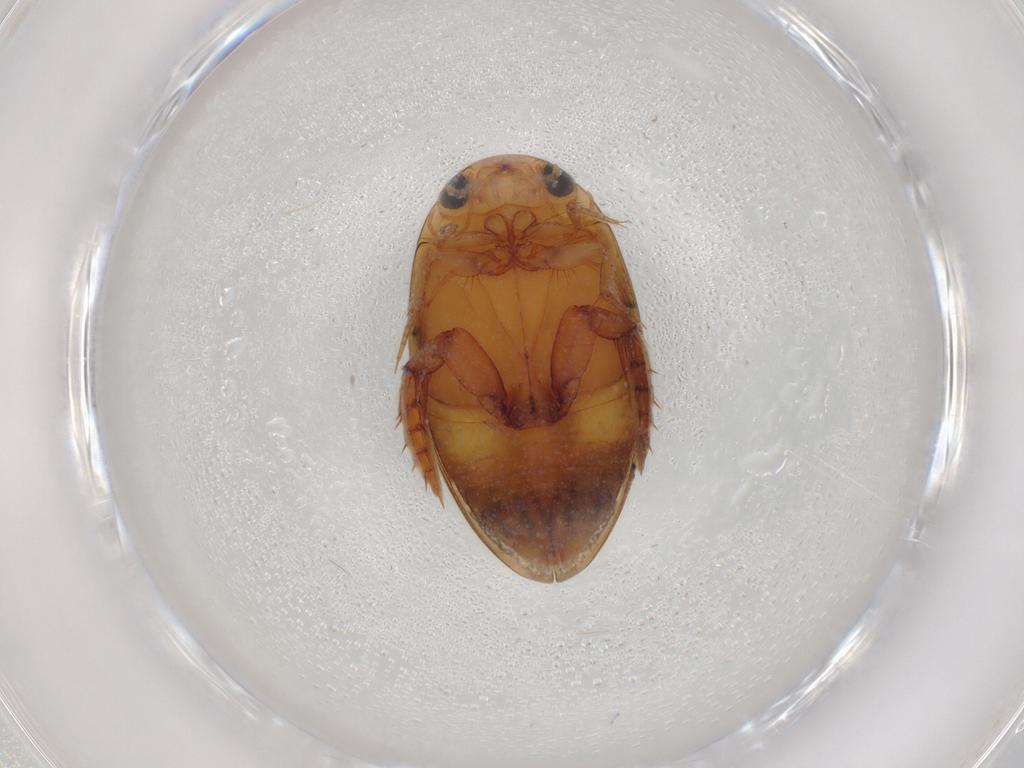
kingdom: Animalia
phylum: Arthropoda
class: Insecta
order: Coleoptera
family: Dytiscidae
